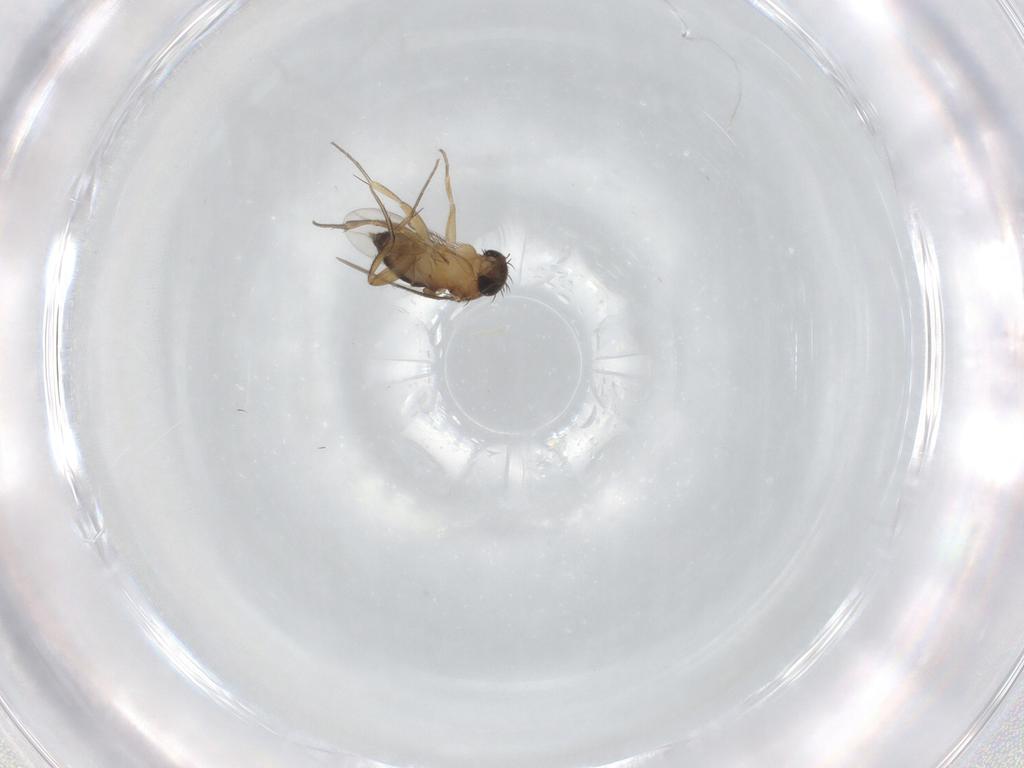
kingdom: Animalia
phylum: Arthropoda
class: Insecta
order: Diptera
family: Phoridae
